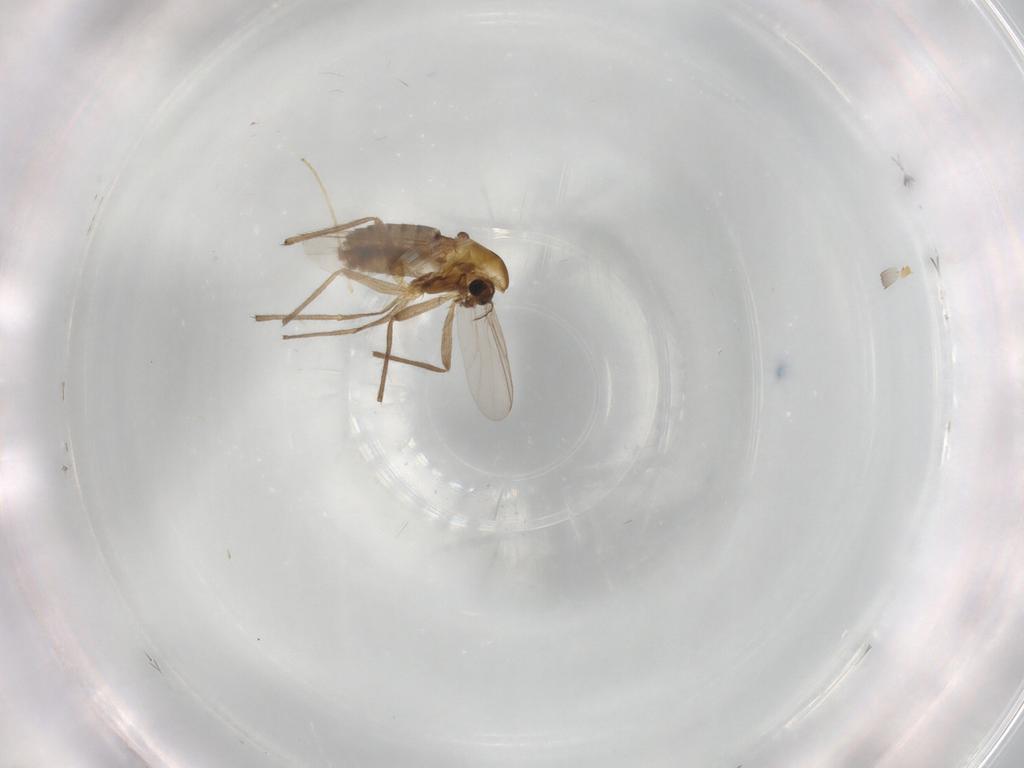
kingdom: Animalia
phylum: Arthropoda
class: Insecta
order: Diptera
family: Chironomidae
